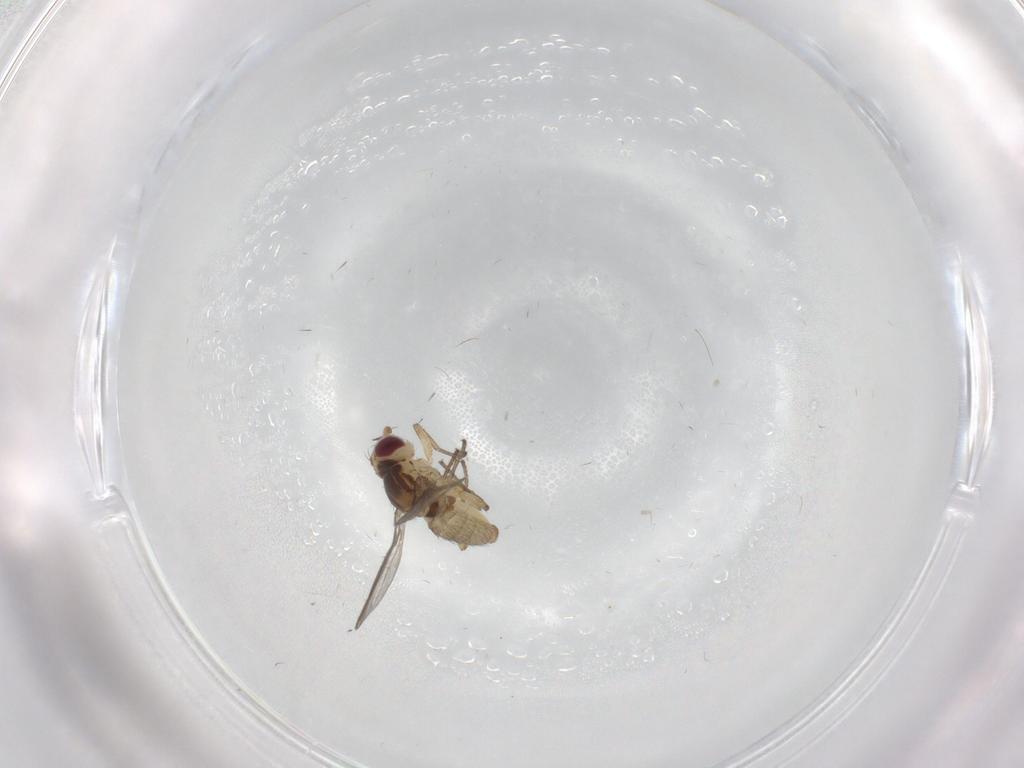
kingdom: Animalia
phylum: Arthropoda
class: Insecta
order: Diptera
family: Agromyzidae
